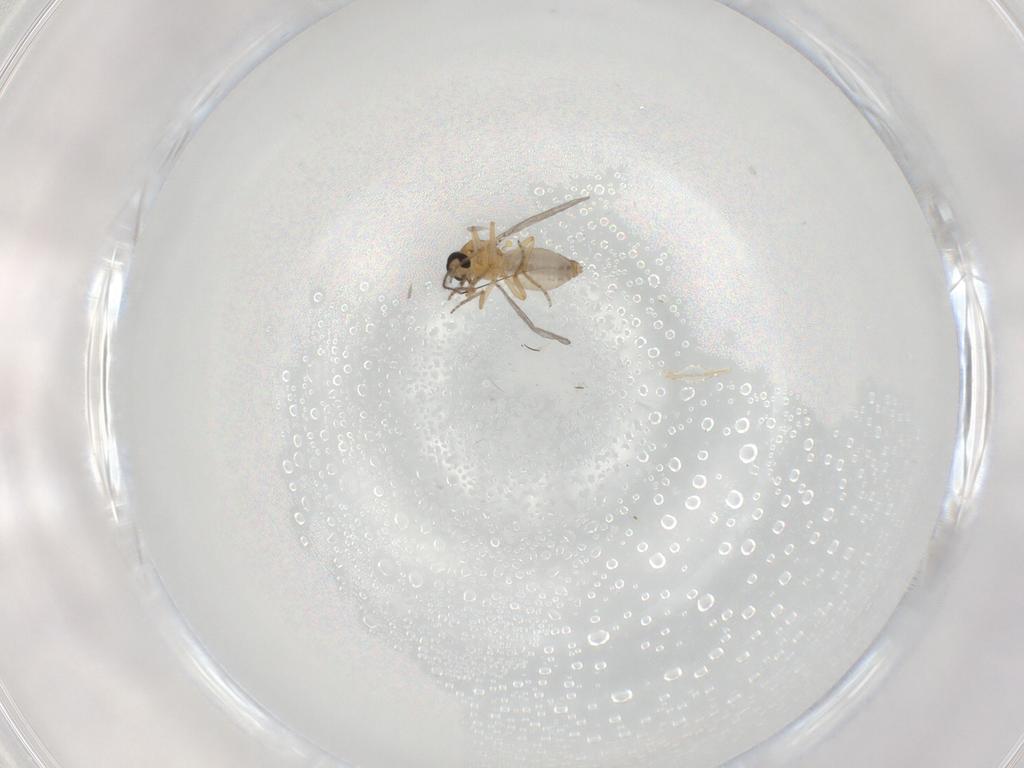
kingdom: Animalia
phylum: Arthropoda
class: Insecta
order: Diptera
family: Ceratopogonidae
